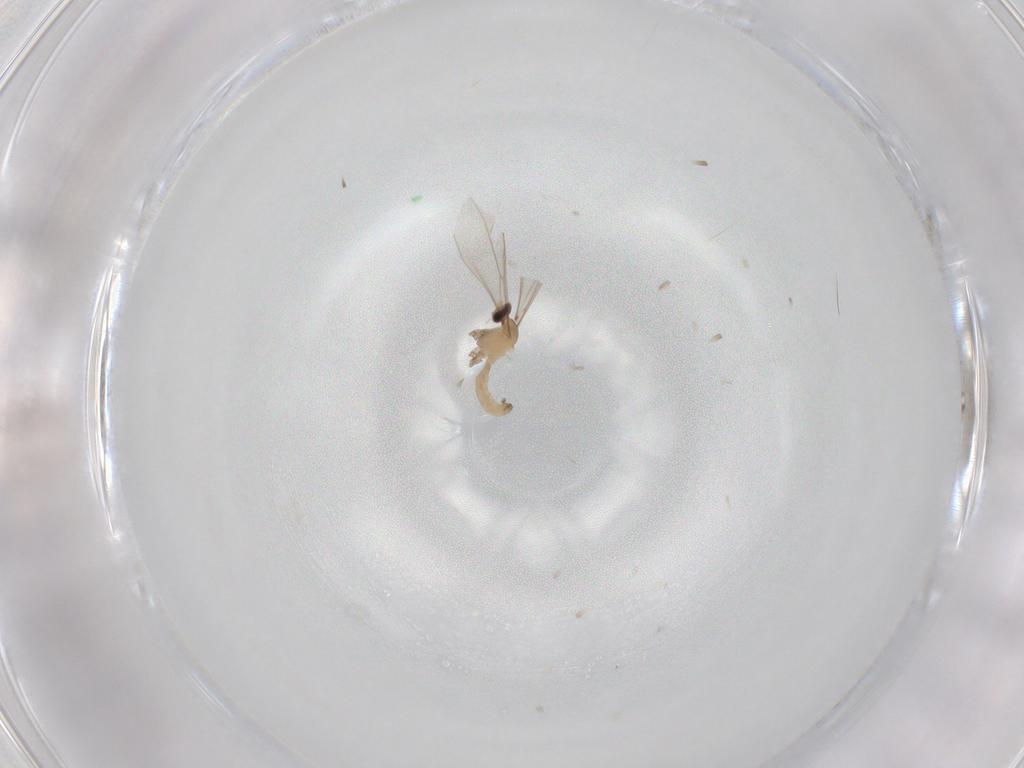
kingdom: Animalia
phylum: Arthropoda
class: Insecta
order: Diptera
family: Cecidomyiidae
